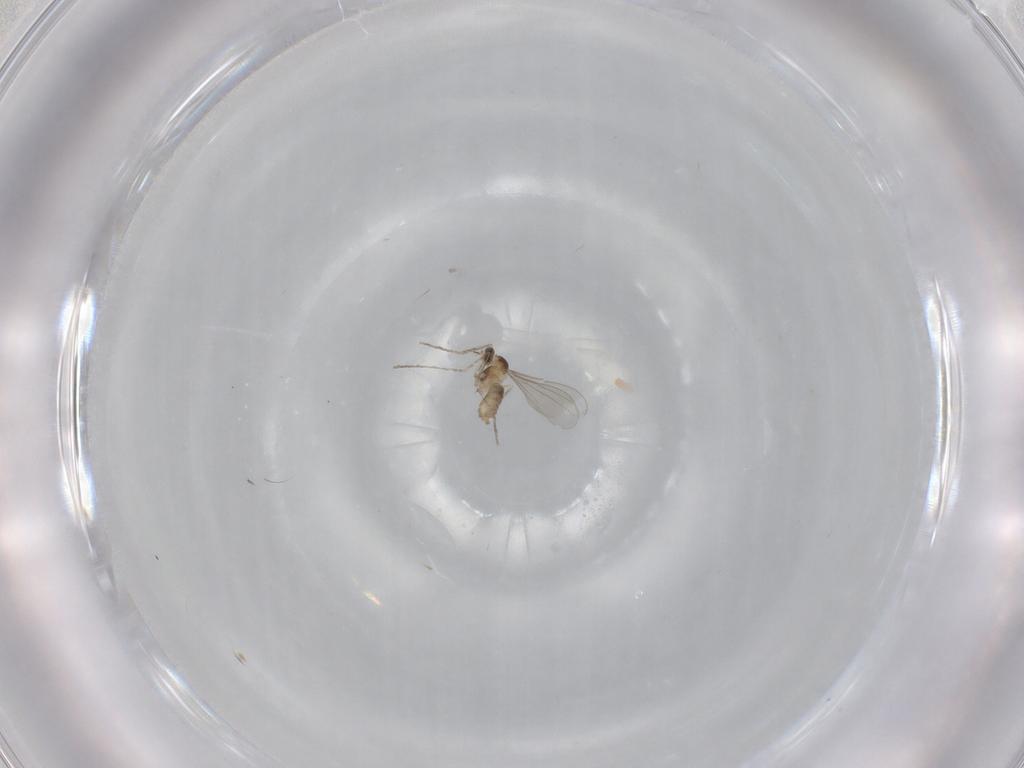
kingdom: Animalia
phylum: Arthropoda
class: Insecta
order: Diptera
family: Cecidomyiidae
